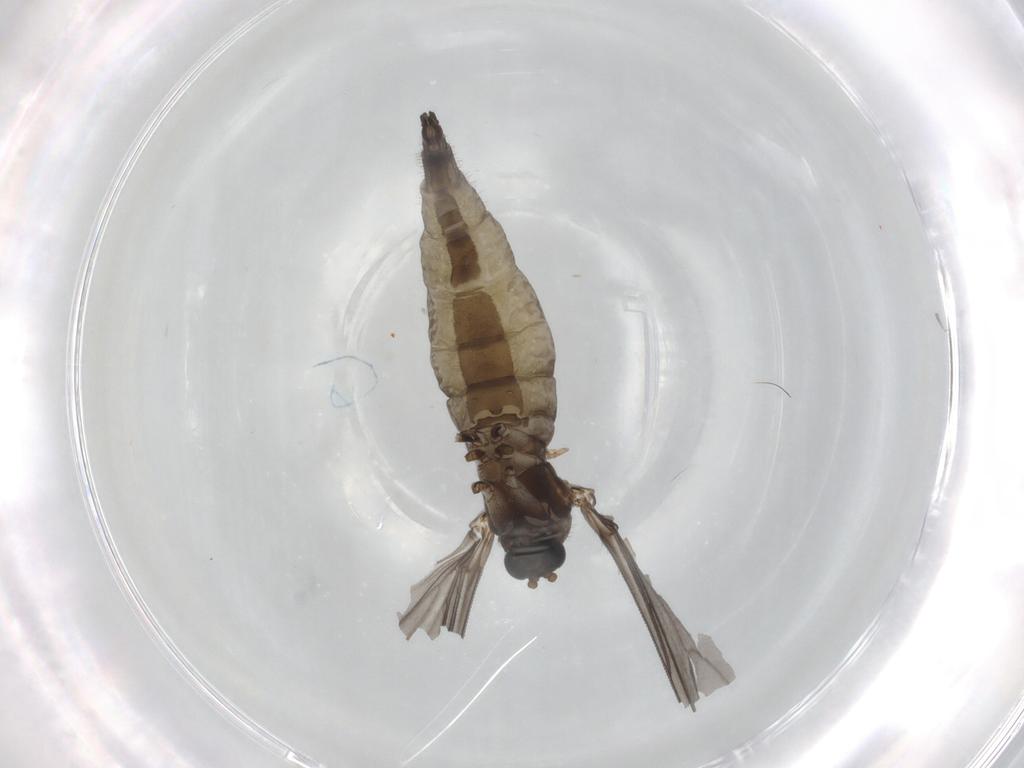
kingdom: Animalia
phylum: Arthropoda
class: Insecta
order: Diptera
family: Sciaridae
